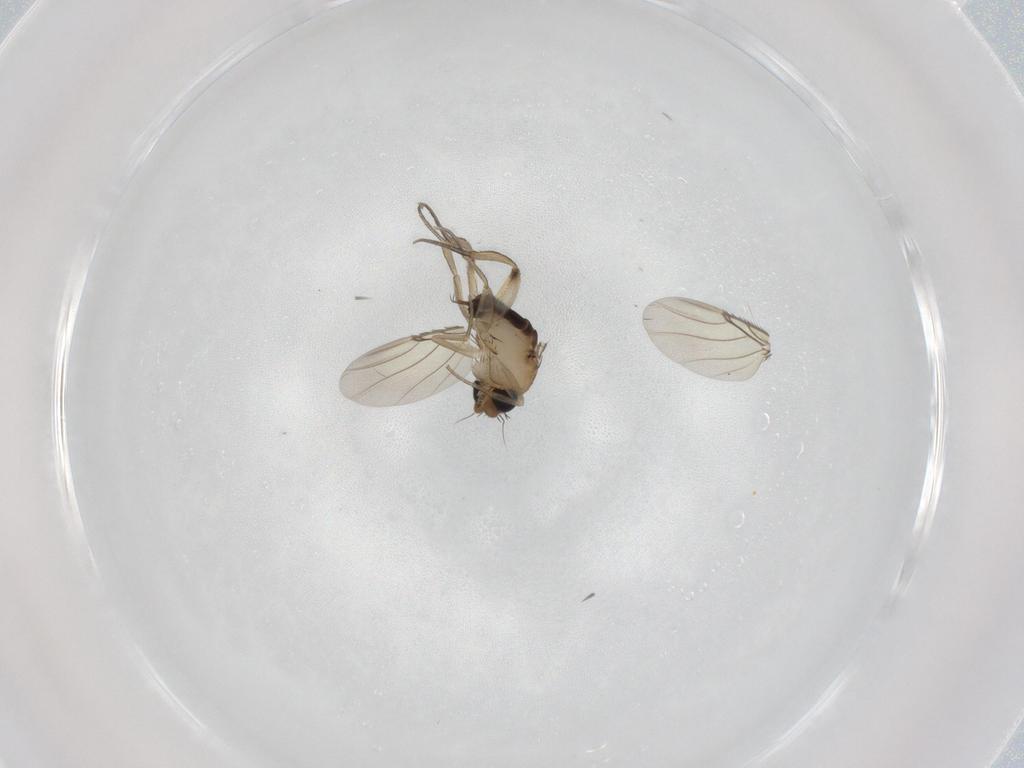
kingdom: Animalia
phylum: Arthropoda
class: Insecta
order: Diptera
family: Phoridae
